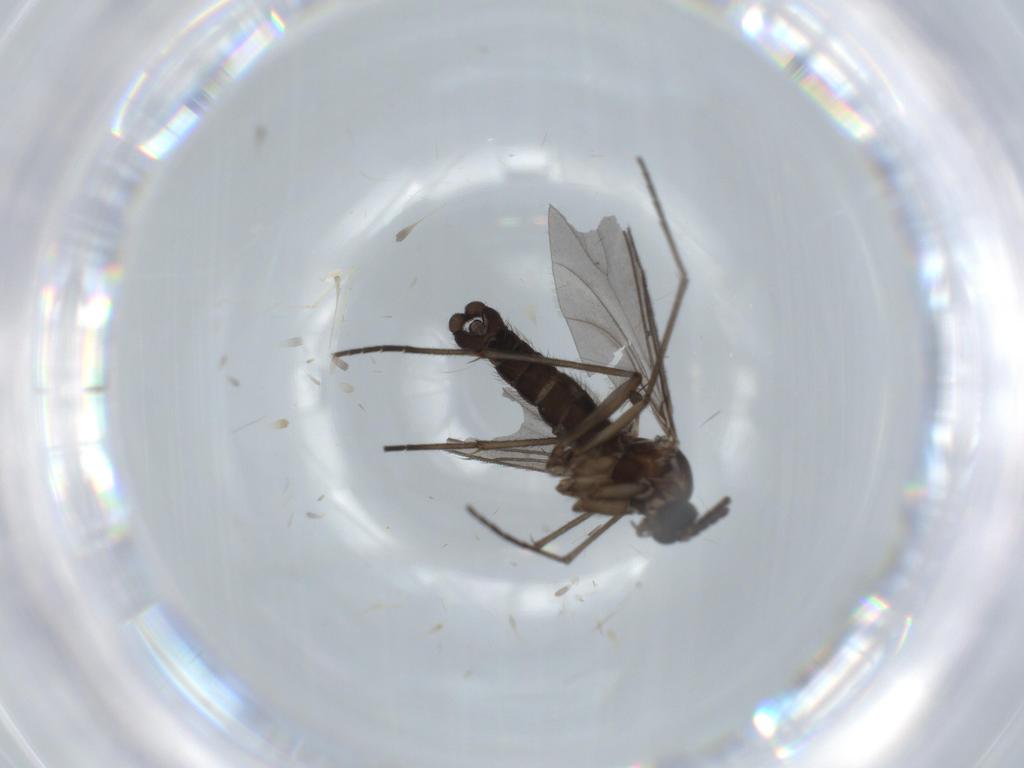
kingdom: Animalia
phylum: Arthropoda
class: Insecta
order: Diptera
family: Sciaridae
